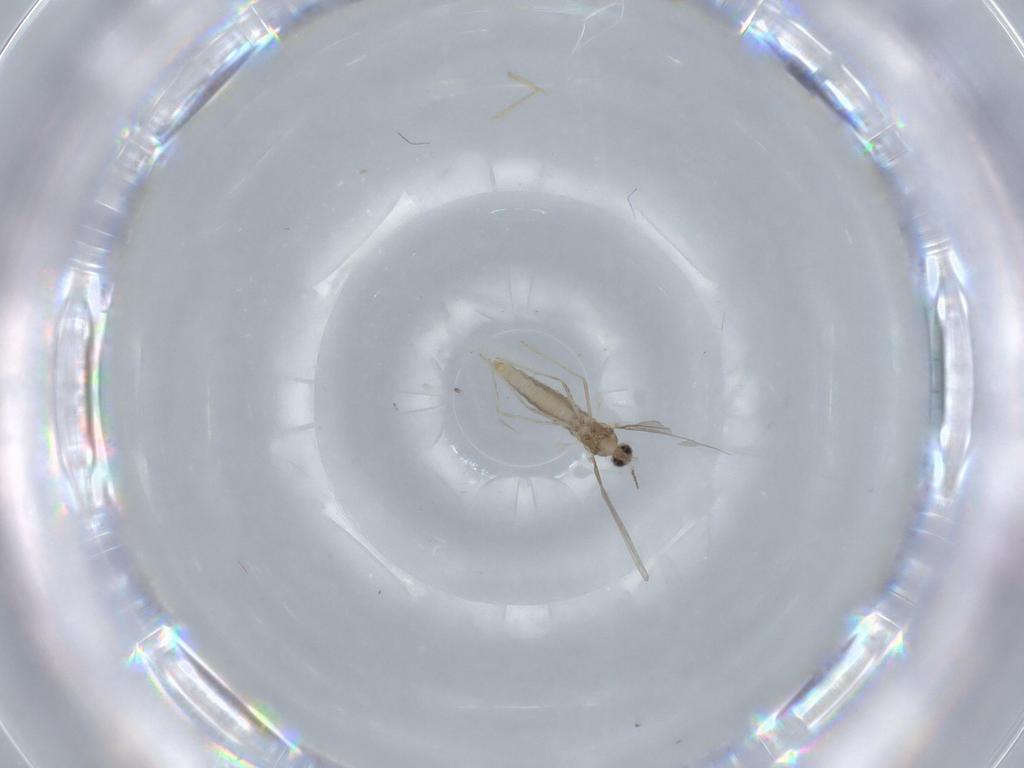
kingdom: Animalia
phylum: Arthropoda
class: Insecta
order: Diptera
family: Cecidomyiidae
